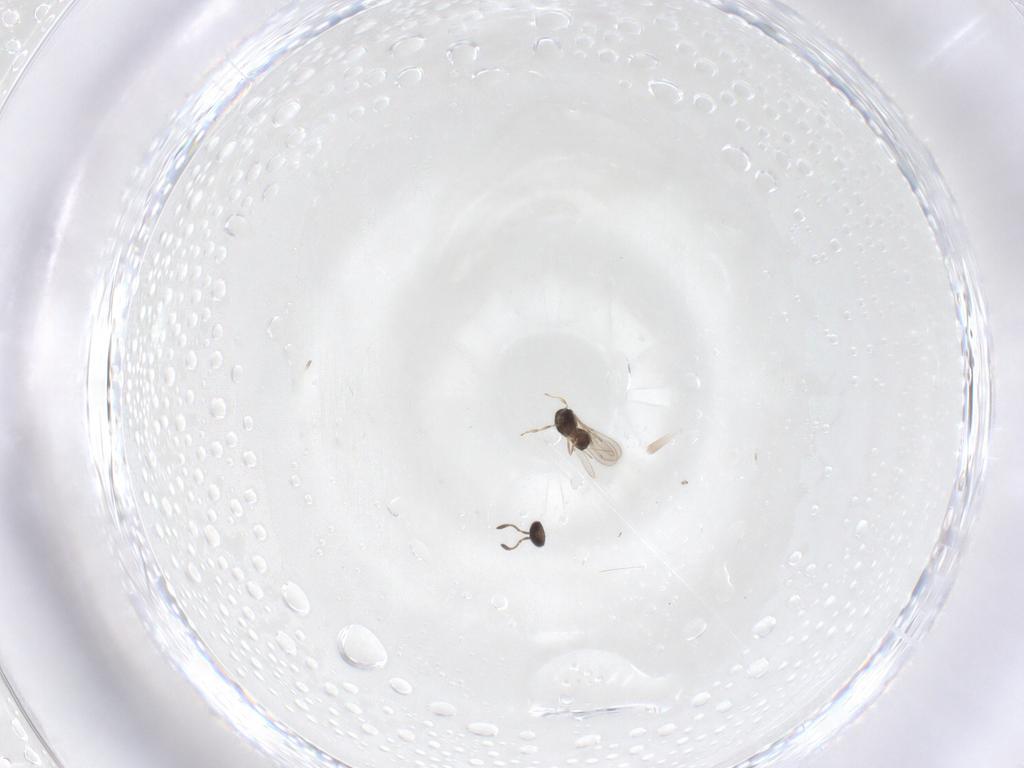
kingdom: Animalia
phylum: Arthropoda
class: Insecta
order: Hymenoptera
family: Scelionidae
